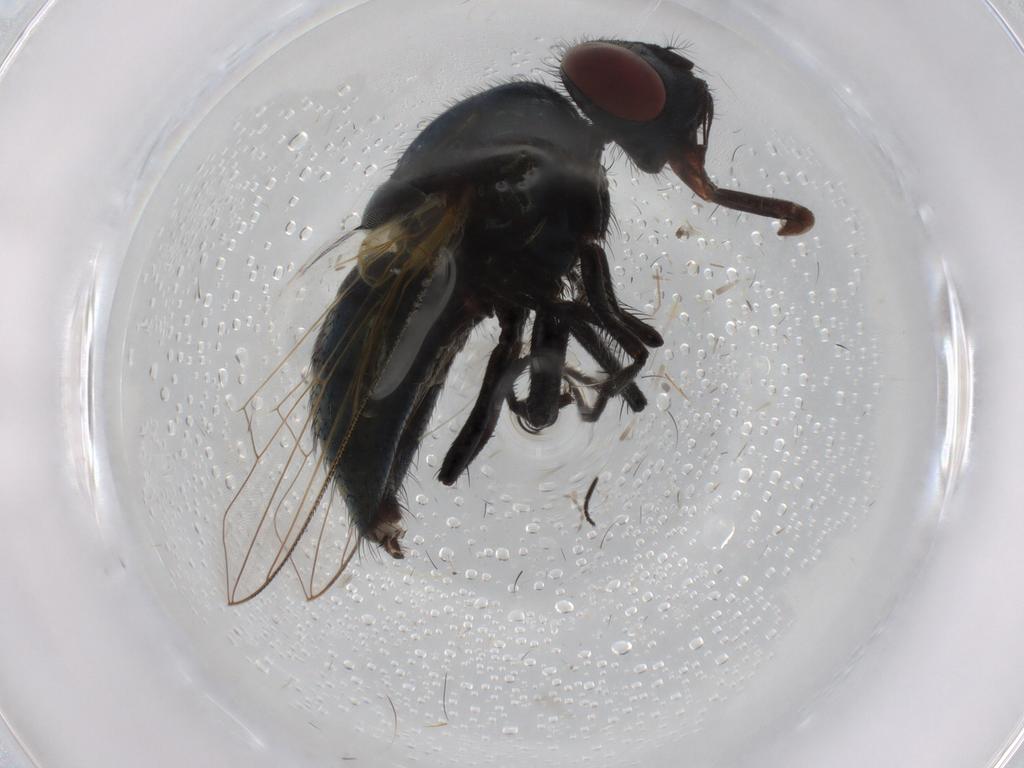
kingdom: Animalia
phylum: Arthropoda
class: Insecta
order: Diptera
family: Muscidae
